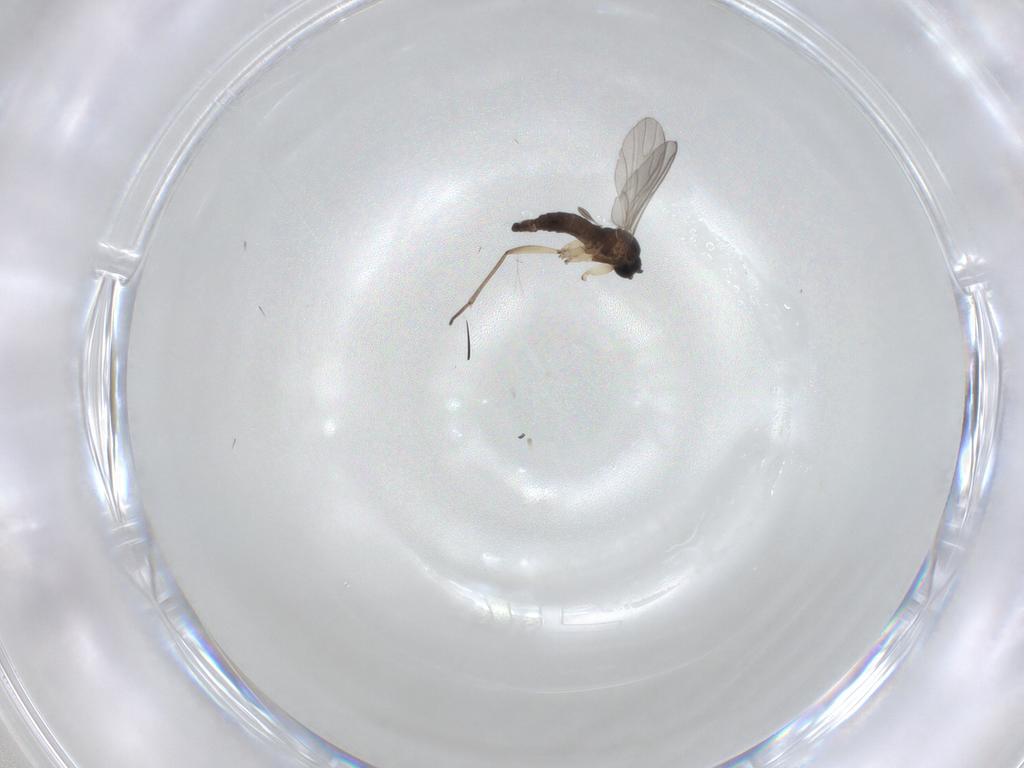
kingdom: Animalia
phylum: Arthropoda
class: Insecta
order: Diptera
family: Sciaridae
